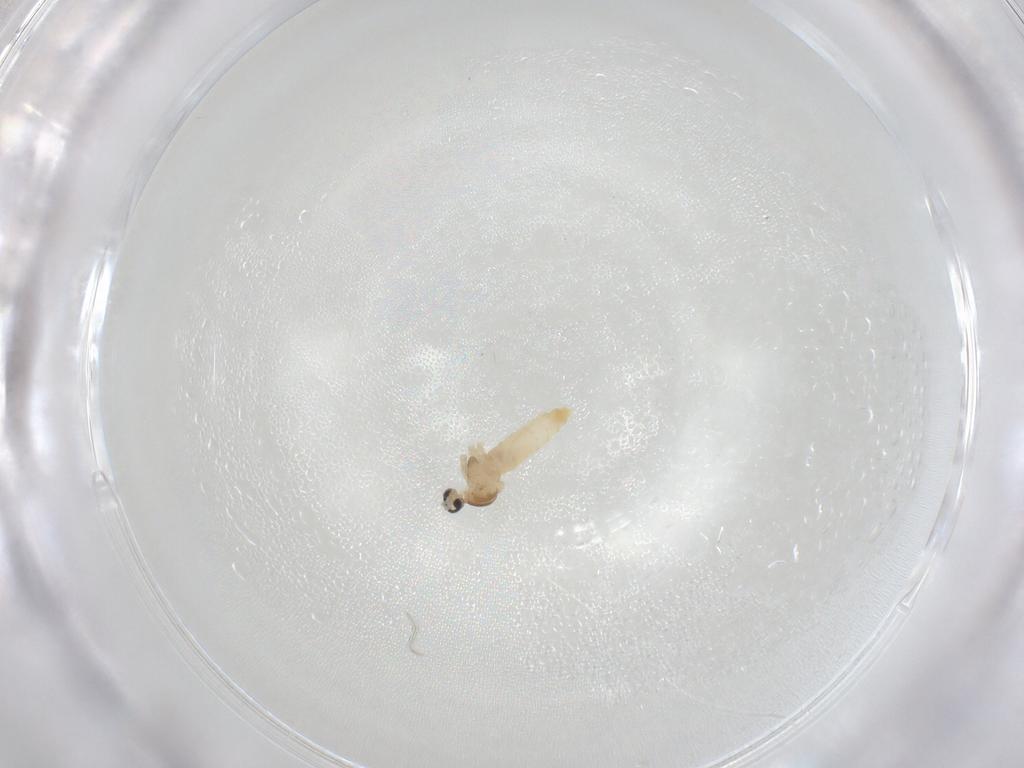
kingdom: Animalia
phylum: Arthropoda
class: Insecta
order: Diptera
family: Cecidomyiidae
